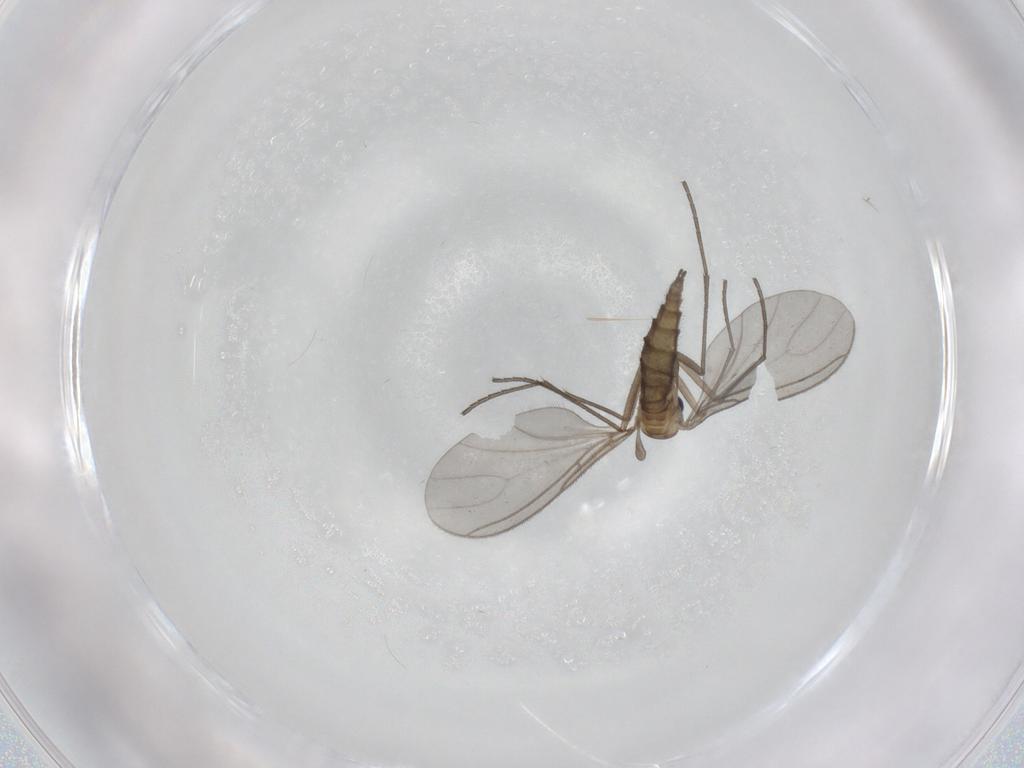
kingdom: Animalia
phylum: Arthropoda
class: Insecta
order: Diptera
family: Sciaridae
